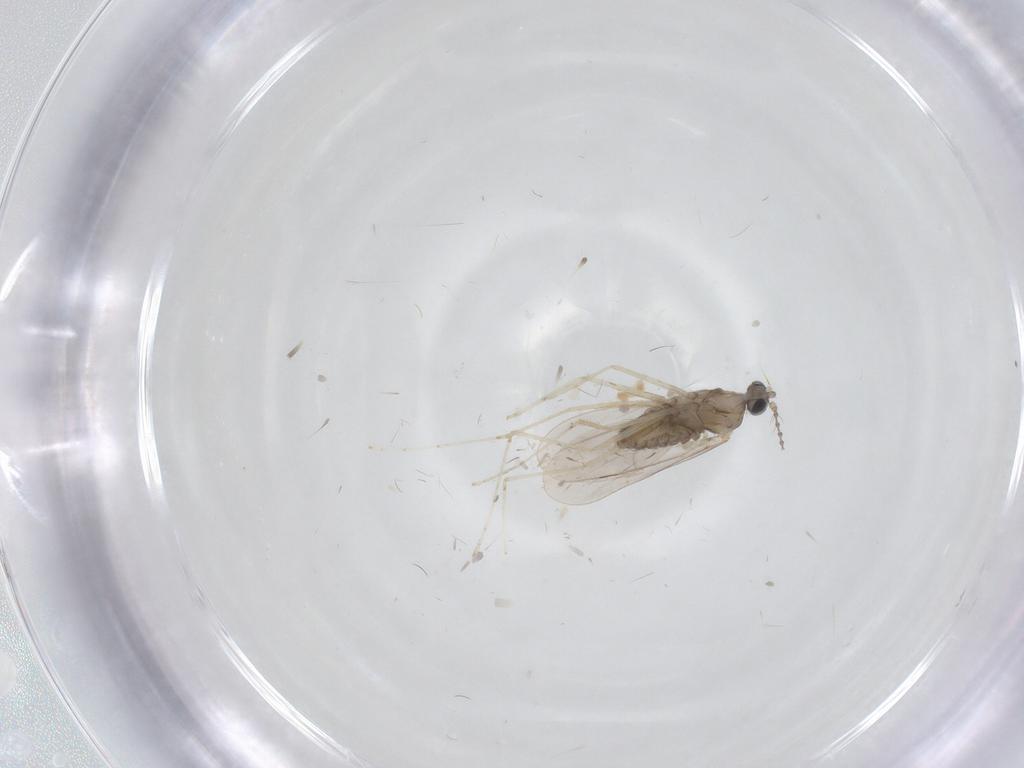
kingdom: Animalia
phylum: Arthropoda
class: Insecta
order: Diptera
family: Cecidomyiidae
